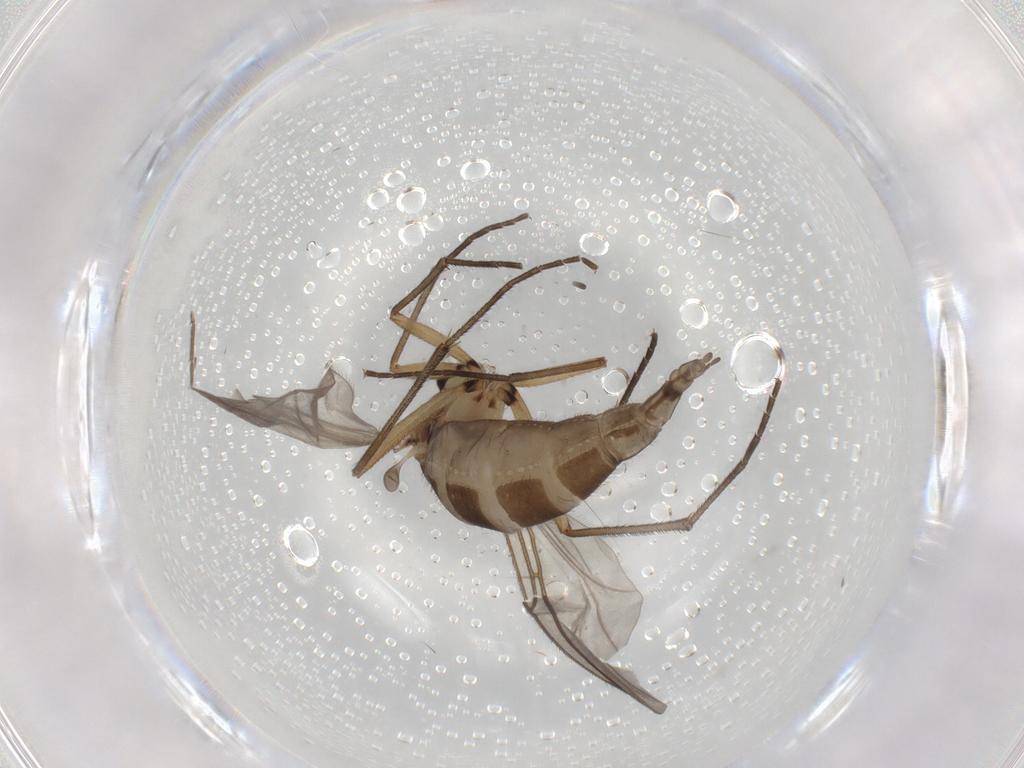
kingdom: Animalia
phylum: Arthropoda
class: Insecta
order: Diptera
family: Sciaridae
